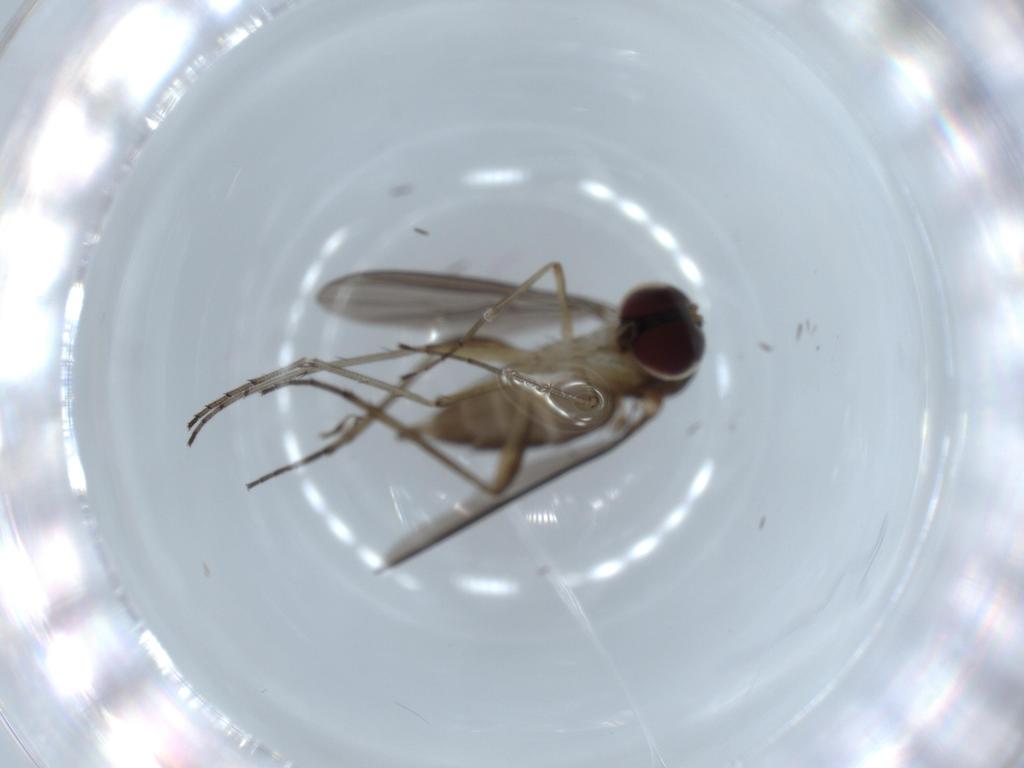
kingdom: Animalia
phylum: Arthropoda
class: Insecta
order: Diptera
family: Dolichopodidae
